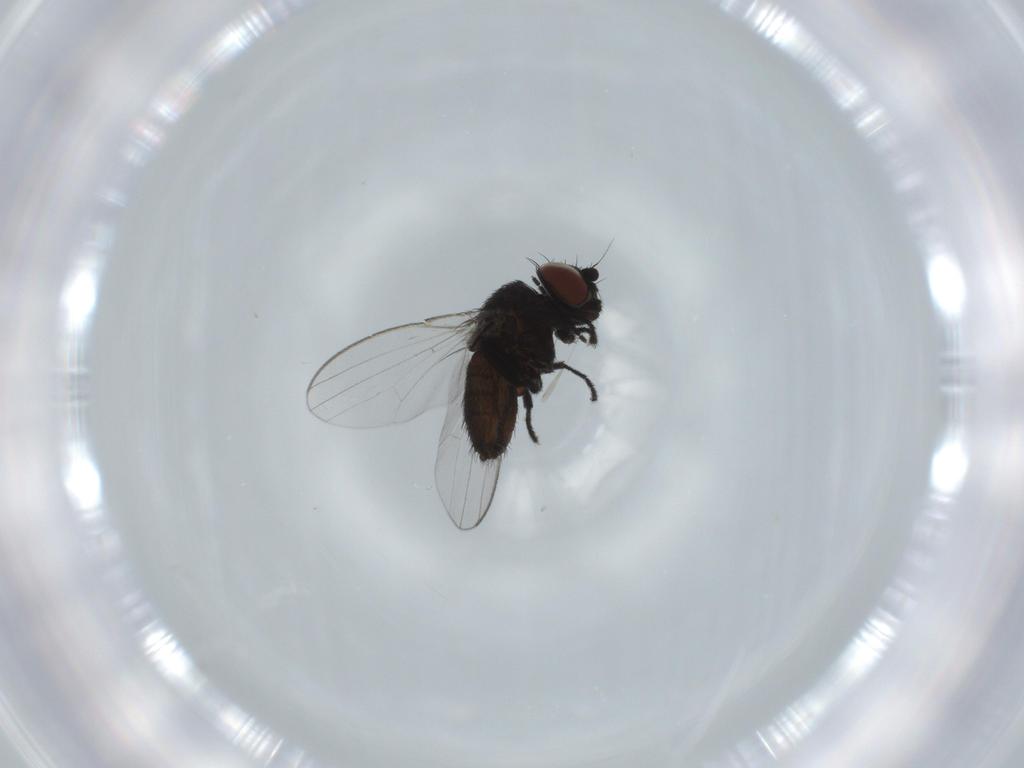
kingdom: Animalia
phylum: Arthropoda
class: Insecta
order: Diptera
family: Milichiidae
